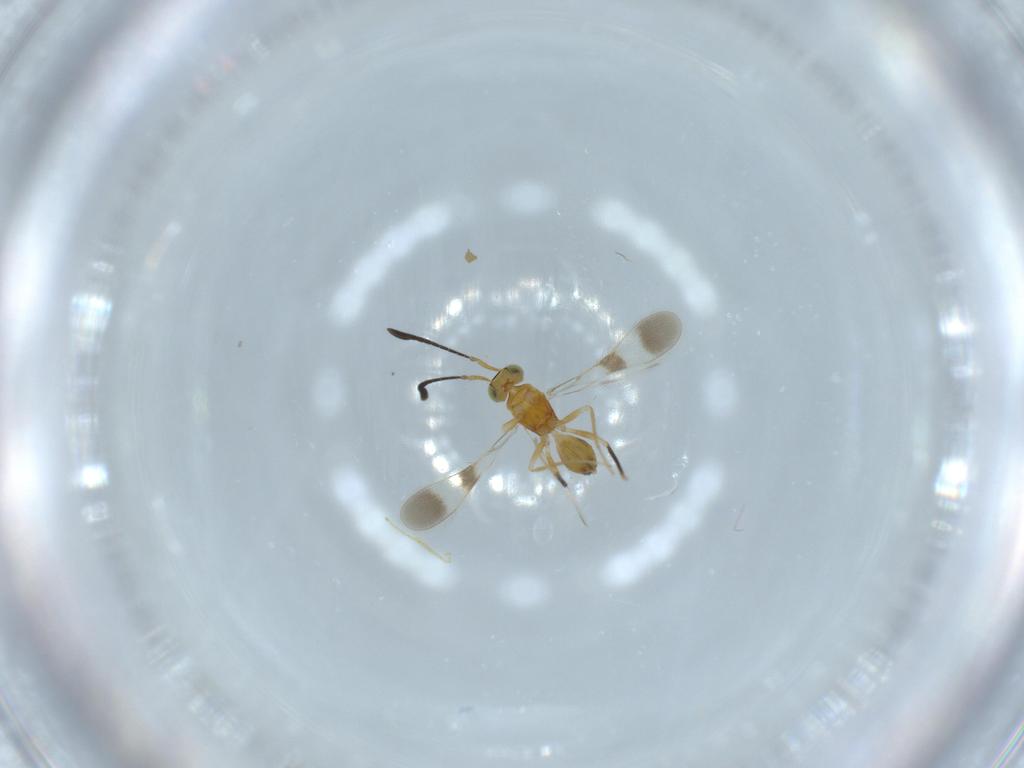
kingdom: Animalia
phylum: Arthropoda
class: Insecta
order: Hymenoptera
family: Mymaridae
